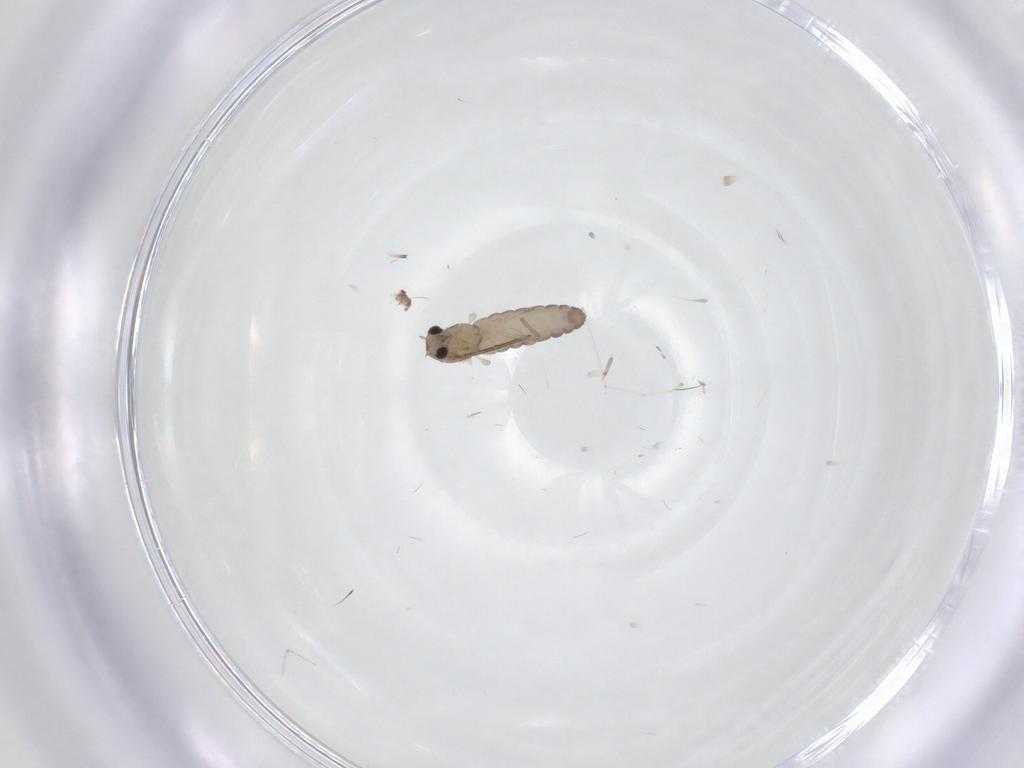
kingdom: Animalia
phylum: Arthropoda
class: Insecta
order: Diptera
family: Chironomidae
